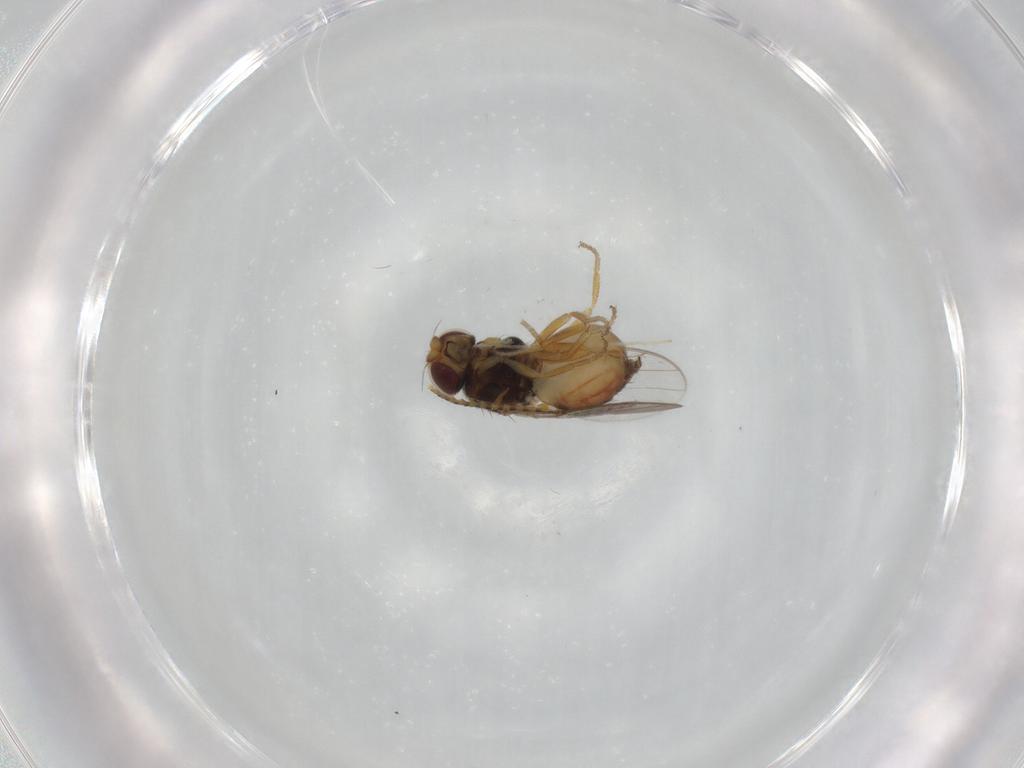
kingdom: Animalia
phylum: Arthropoda
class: Insecta
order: Diptera
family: Chloropidae
